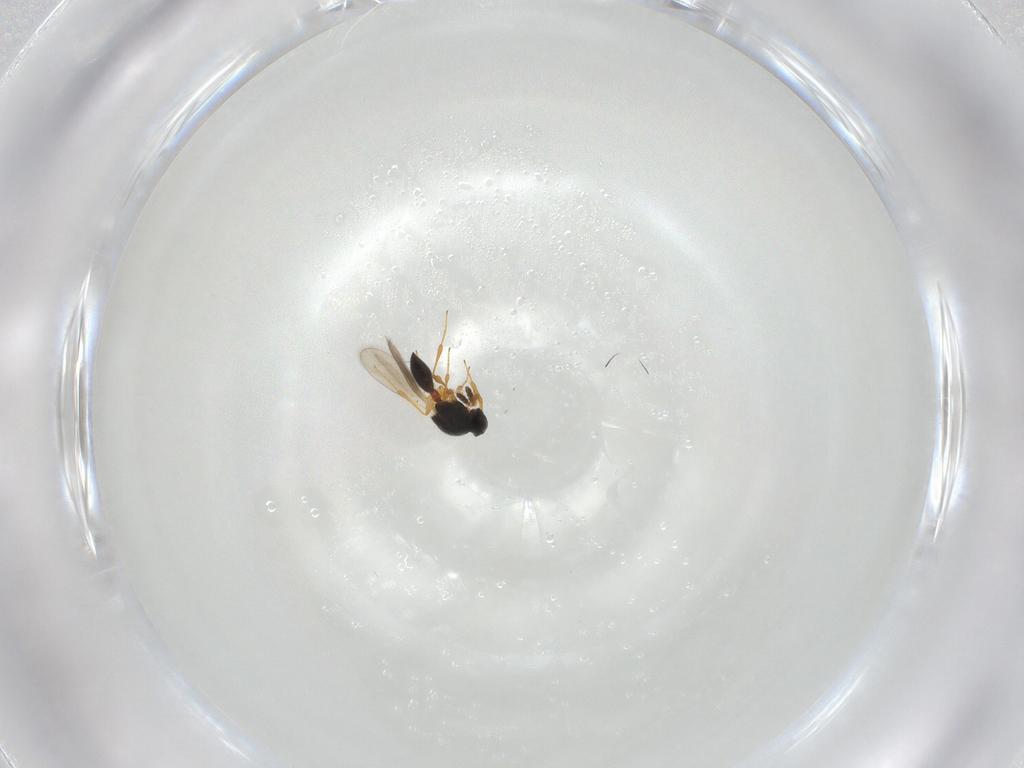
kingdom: Animalia
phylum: Arthropoda
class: Insecta
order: Hymenoptera
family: Platygastridae
